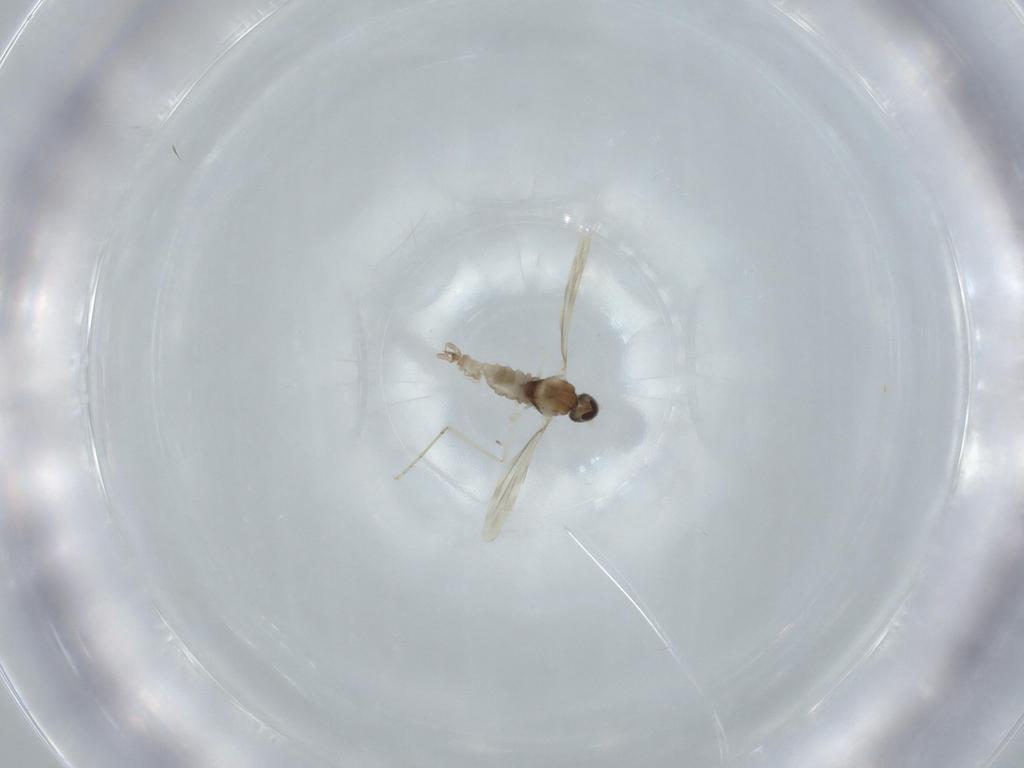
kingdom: Animalia
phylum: Arthropoda
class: Insecta
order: Diptera
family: Cecidomyiidae
